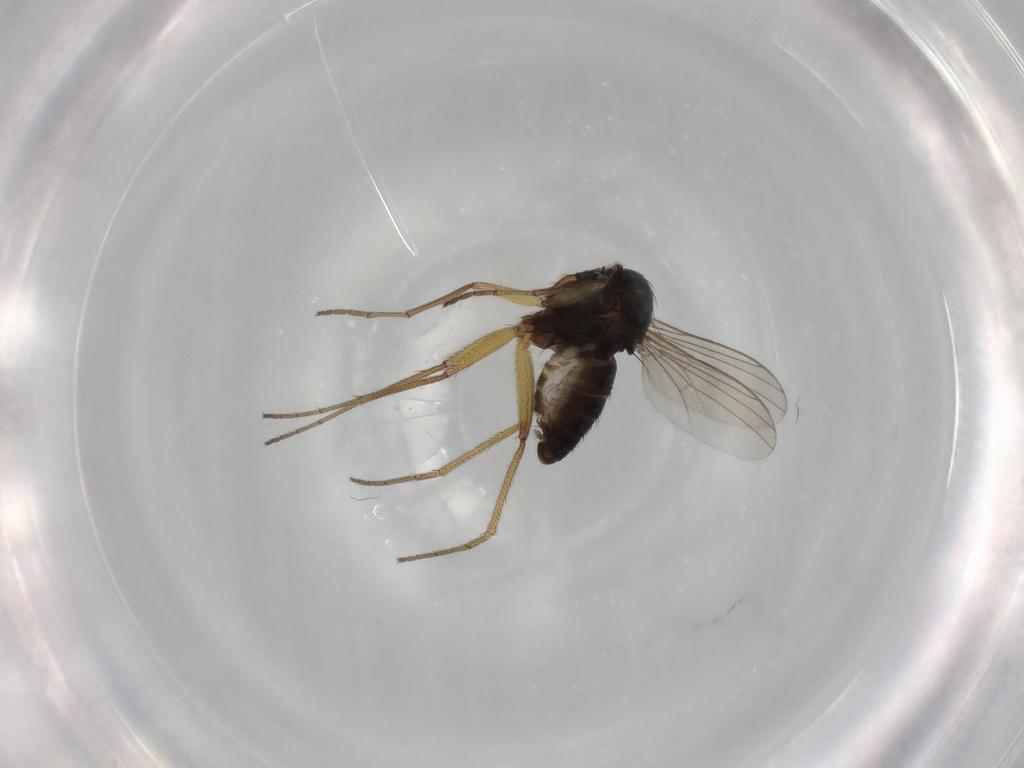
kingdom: Animalia
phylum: Arthropoda
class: Insecta
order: Diptera
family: Dolichopodidae
